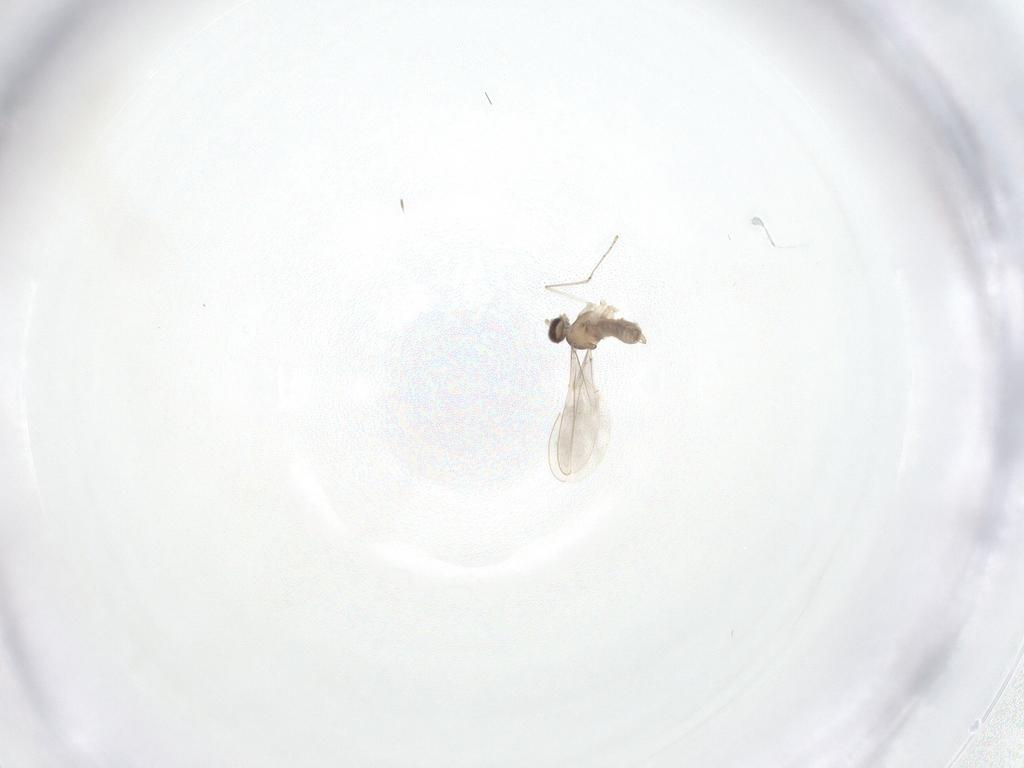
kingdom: Animalia
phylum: Arthropoda
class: Insecta
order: Diptera
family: Cecidomyiidae
